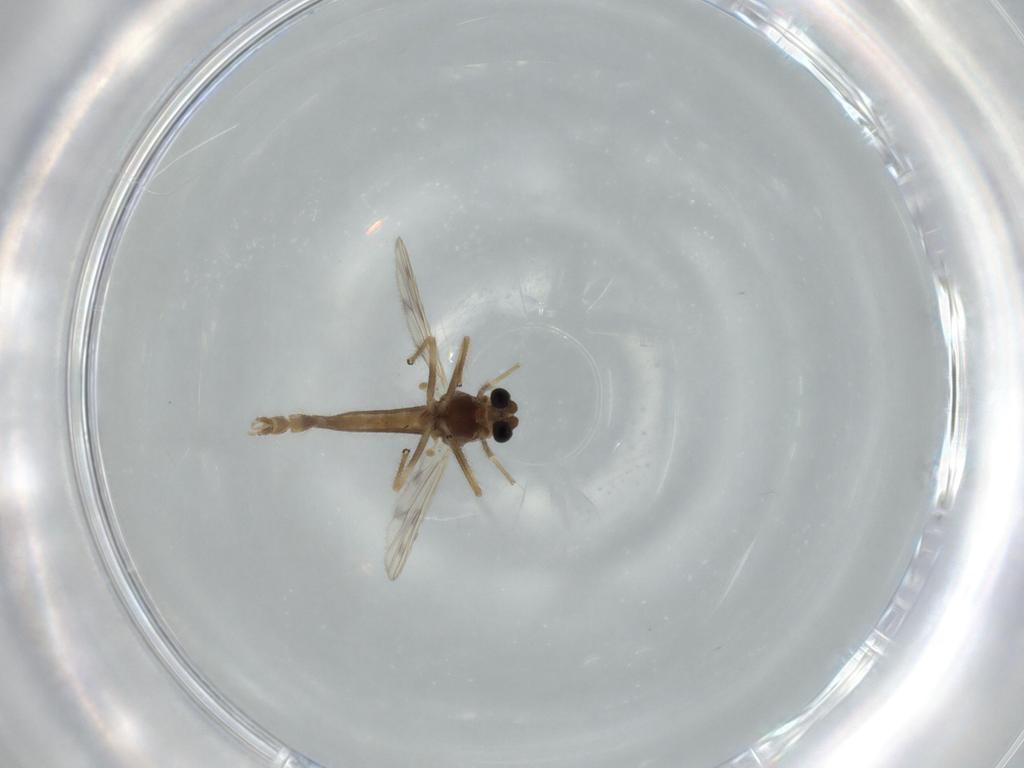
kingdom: Animalia
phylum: Arthropoda
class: Insecta
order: Diptera
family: Chironomidae
